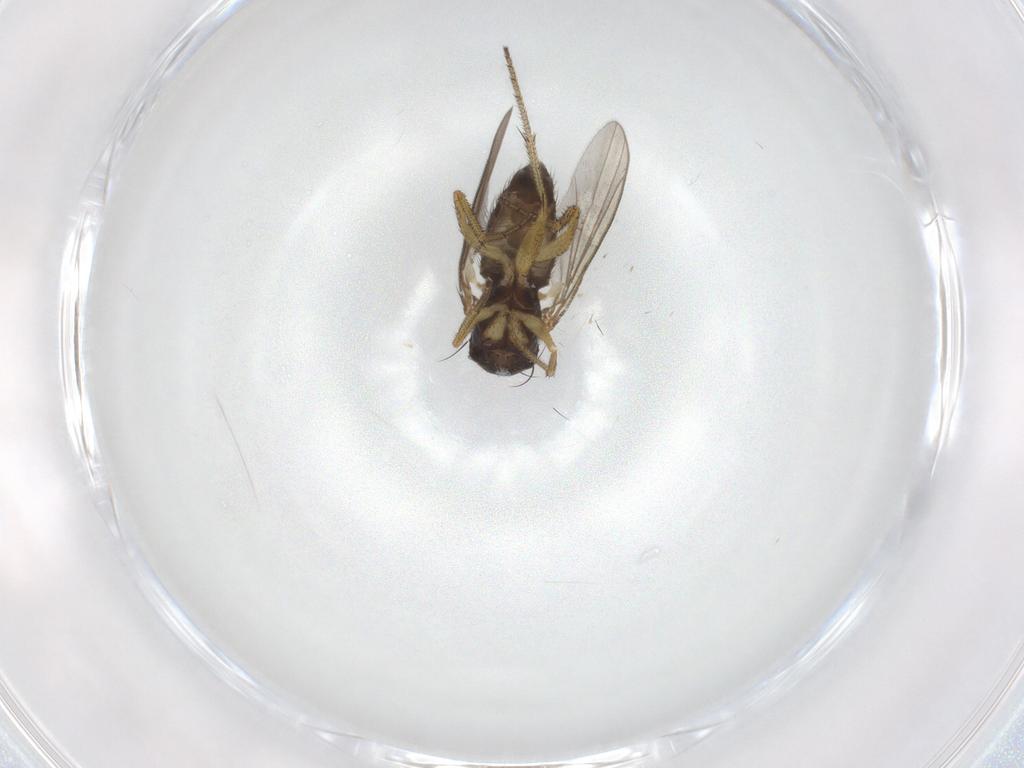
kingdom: Animalia
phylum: Arthropoda
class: Insecta
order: Diptera
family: Dolichopodidae
